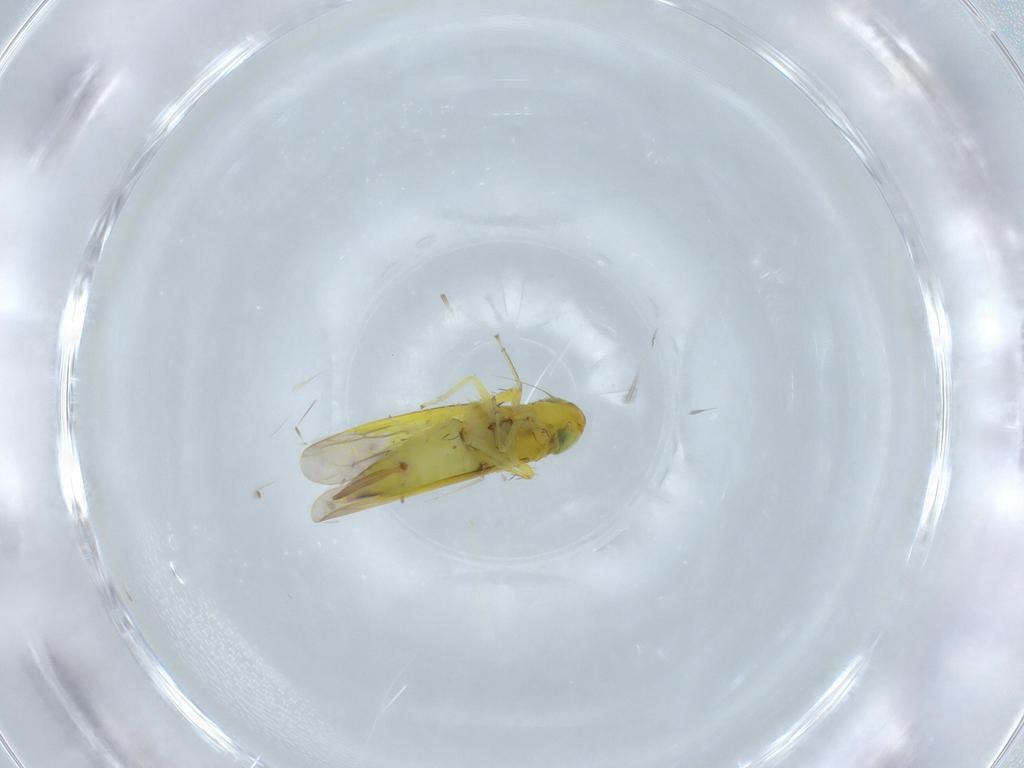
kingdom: Animalia
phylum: Arthropoda
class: Insecta
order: Hemiptera
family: Cicadellidae
